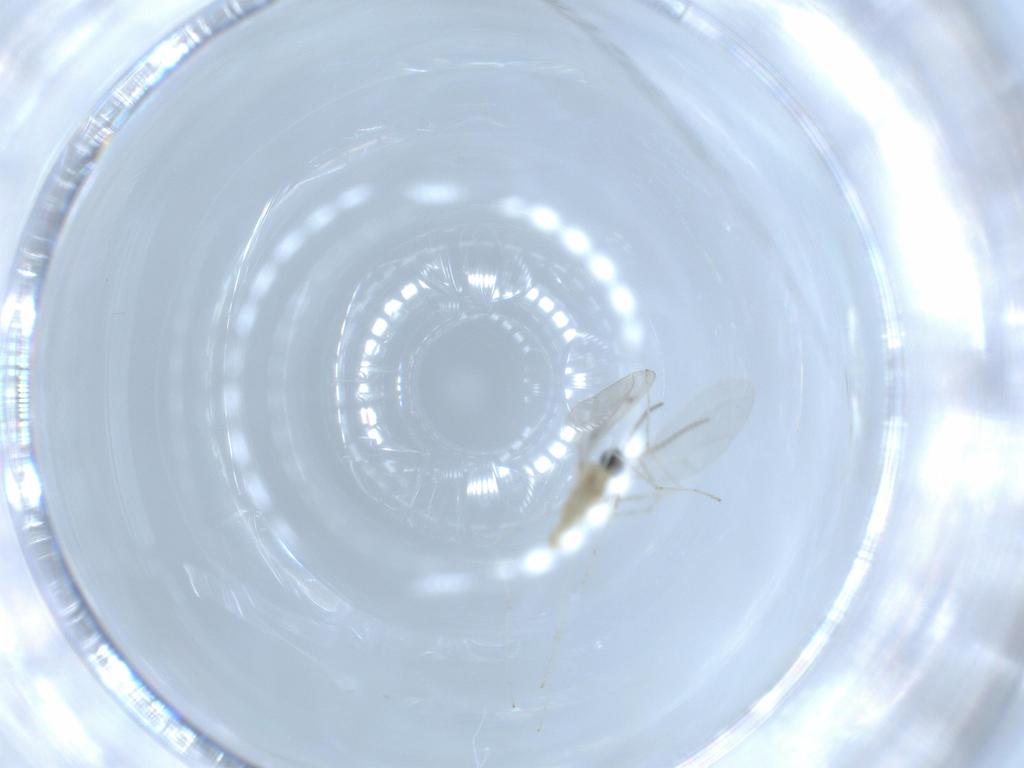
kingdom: Animalia
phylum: Arthropoda
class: Insecta
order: Diptera
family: Cecidomyiidae
